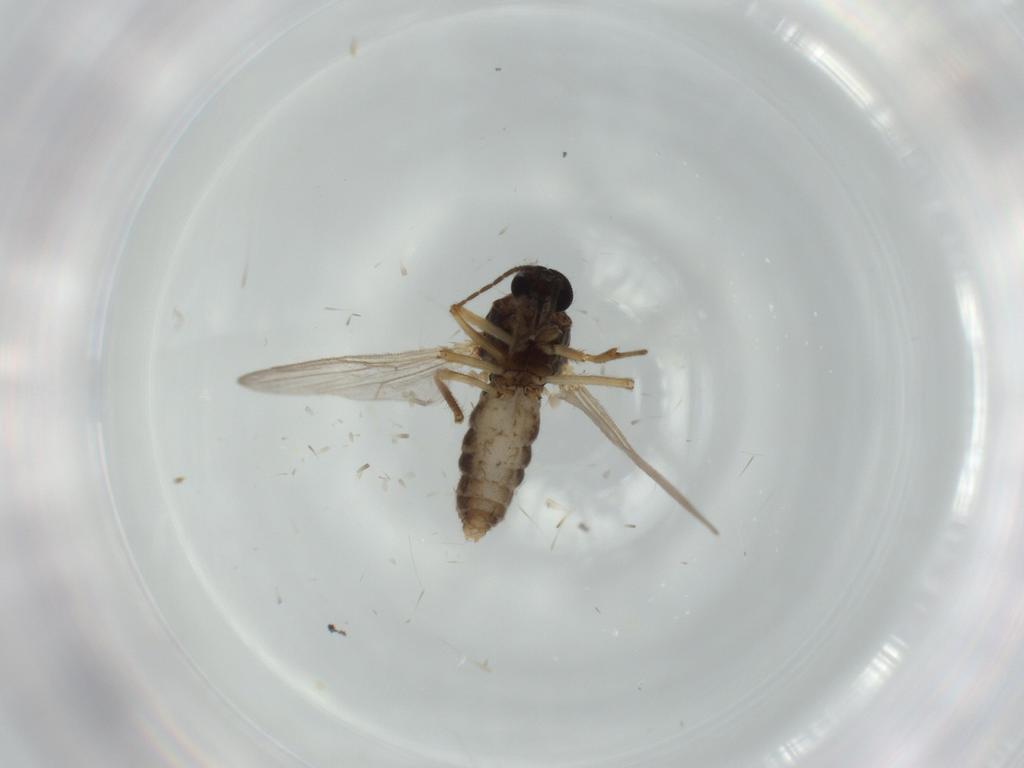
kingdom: Animalia
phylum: Arthropoda
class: Insecta
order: Diptera
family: Ceratopogonidae
